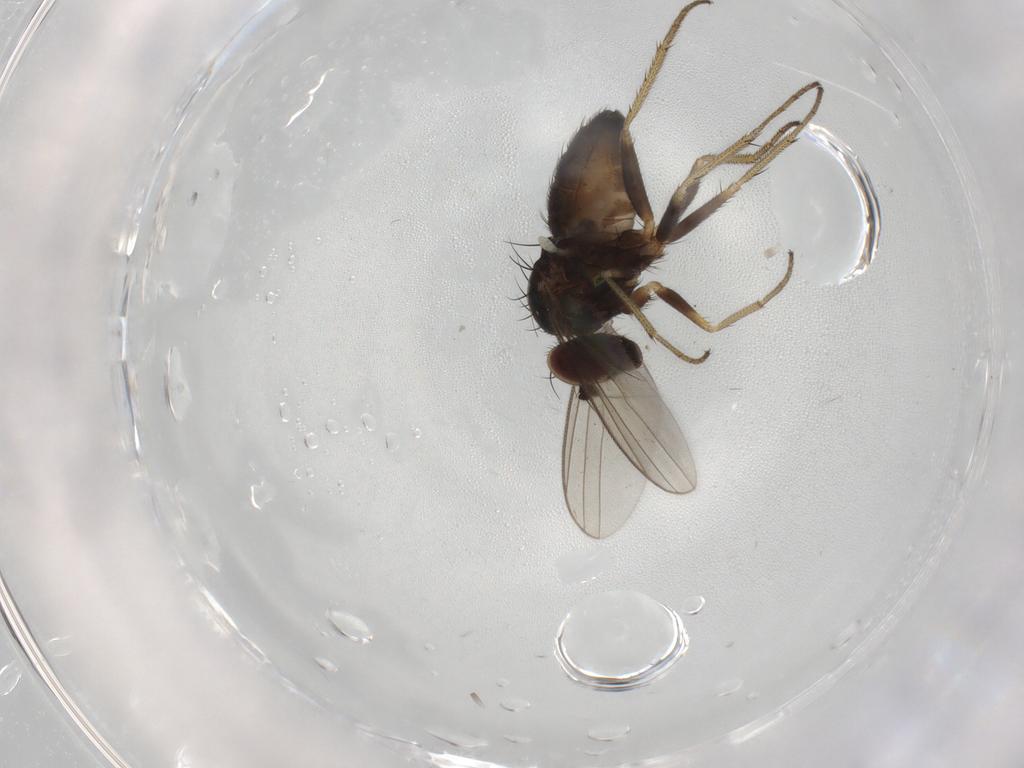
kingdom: Animalia
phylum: Arthropoda
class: Insecta
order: Diptera
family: Dolichopodidae
